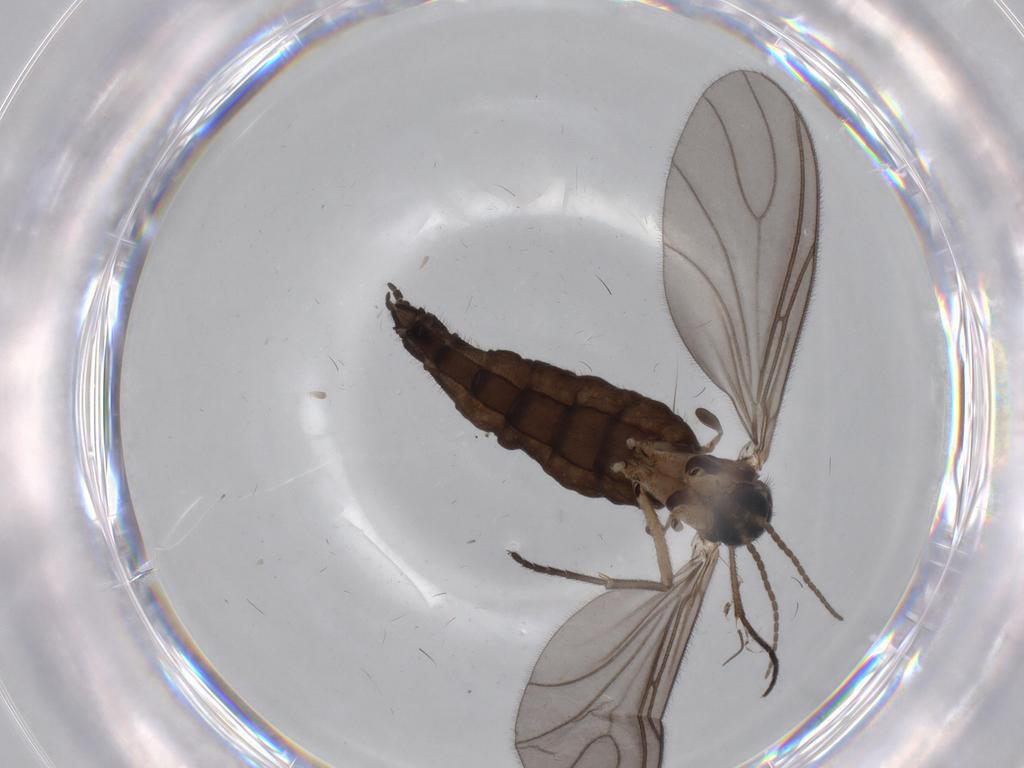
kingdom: Animalia
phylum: Arthropoda
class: Insecta
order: Diptera
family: Sciaridae
